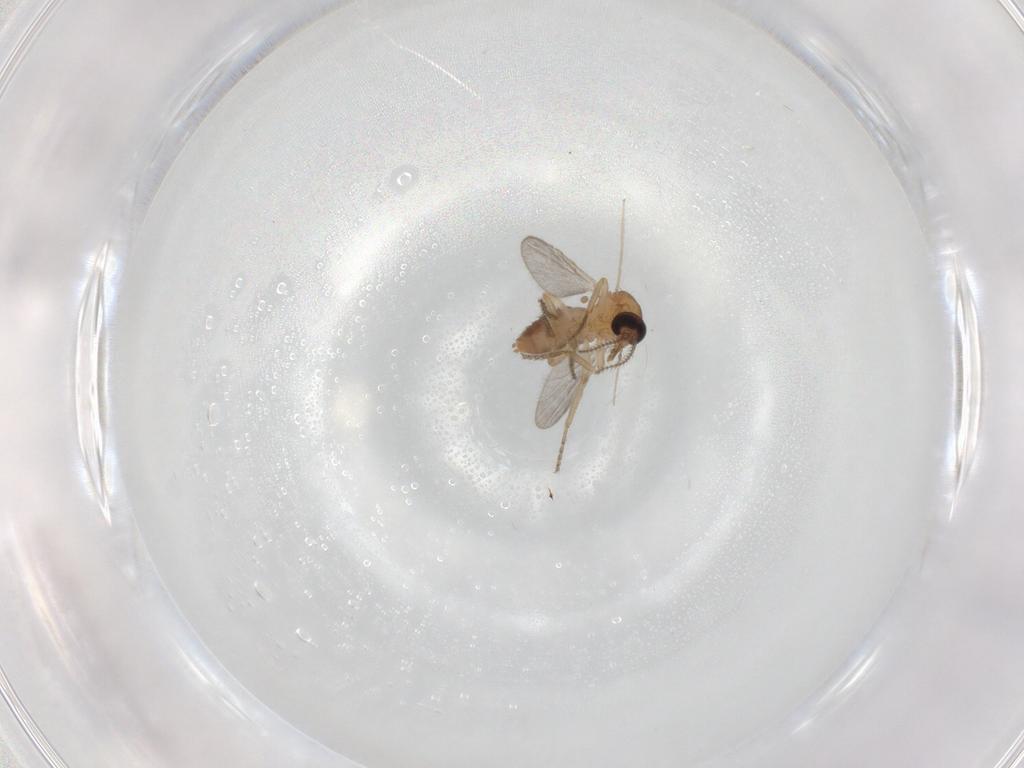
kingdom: Animalia
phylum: Arthropoda
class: Insecta
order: Diptera
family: Ceratopogonidae
